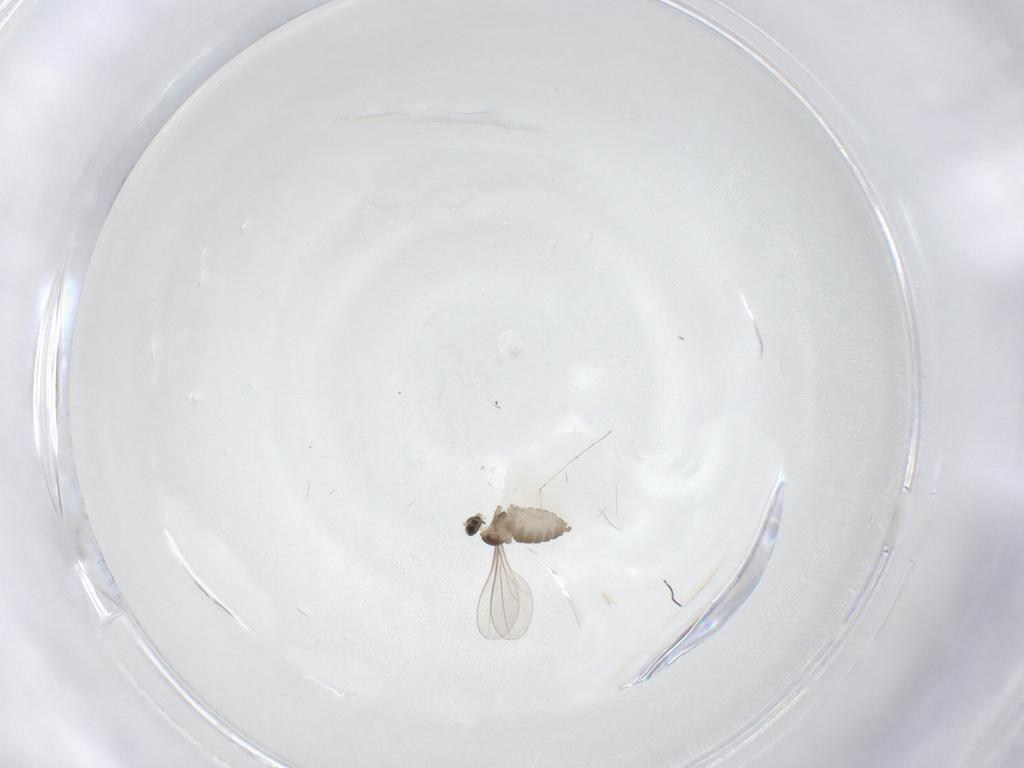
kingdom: Animalia
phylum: Arthropoda
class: Insecta
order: Diptera
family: Cecidomyiidae
